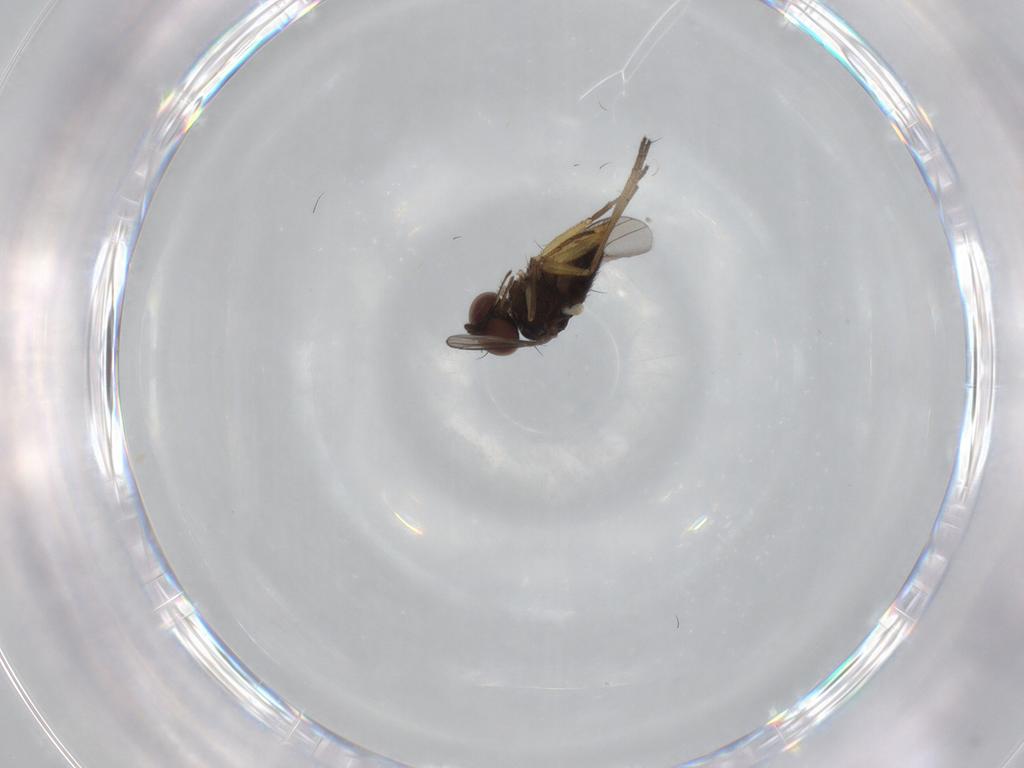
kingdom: Animalia
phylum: Arthropoda
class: Insecta
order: Diptera
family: Dolichopodidae
